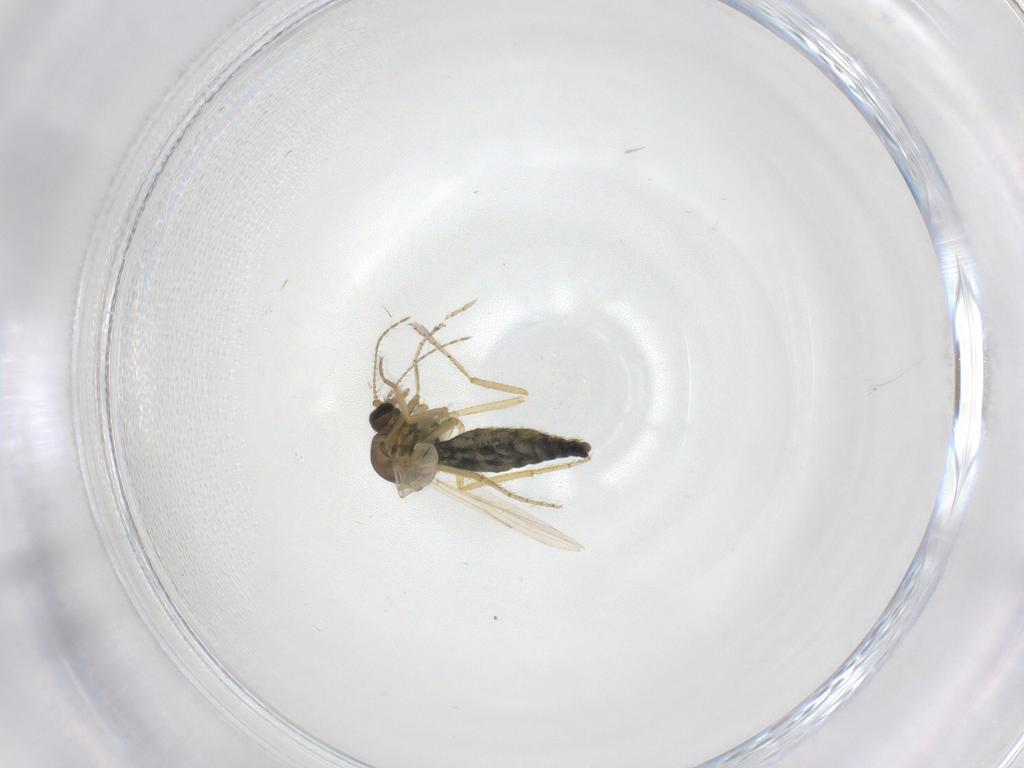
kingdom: Animalia
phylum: Arthropoda
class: Insecta
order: Diptera
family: Ceratopogonidae
